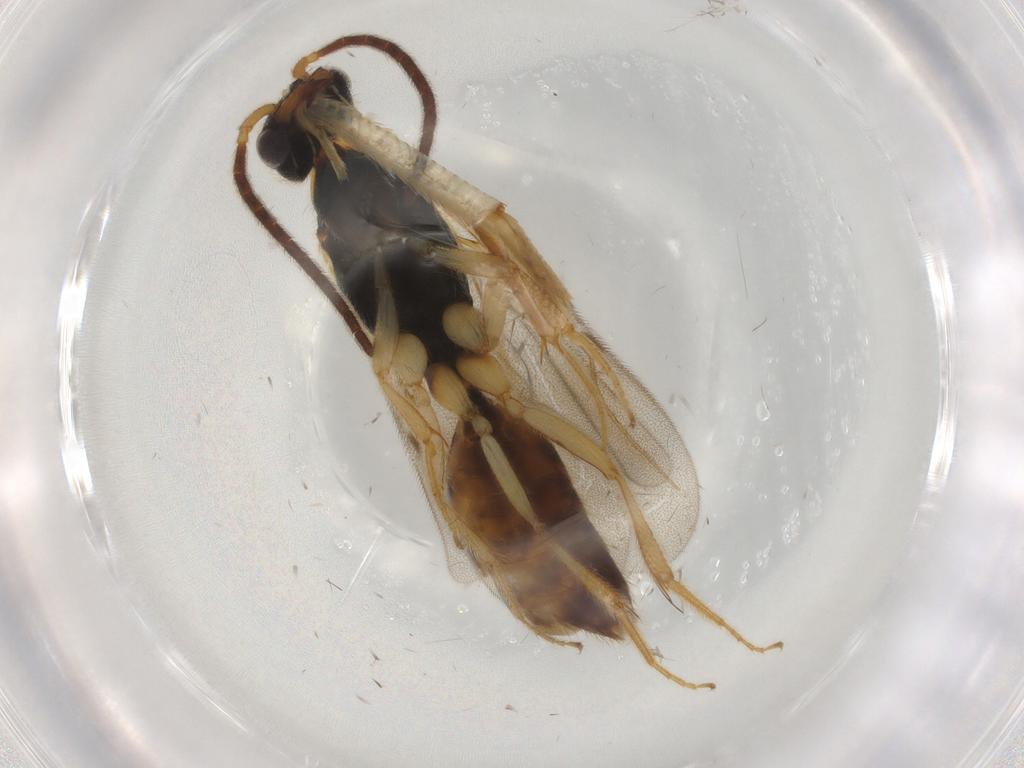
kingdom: Animalia
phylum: Arthropoda
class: Insecta
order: Hymenoptera
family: Bethylidae
